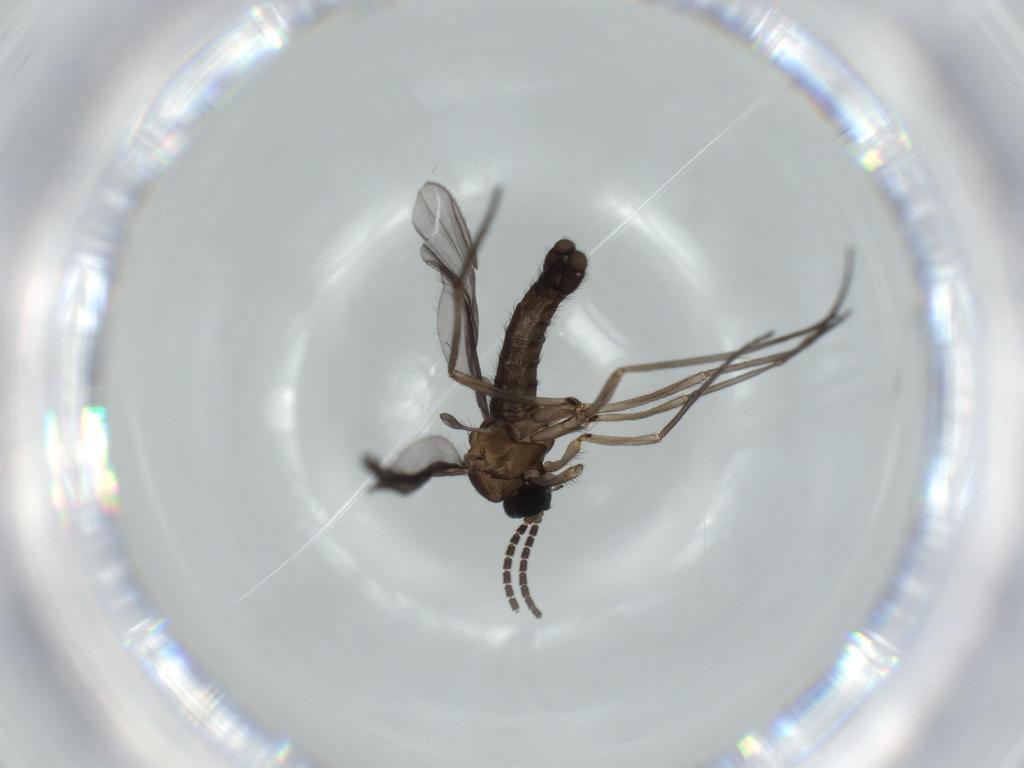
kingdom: Animalia
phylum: Arthropoda
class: Insecta
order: Diptera
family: Sciaridae
